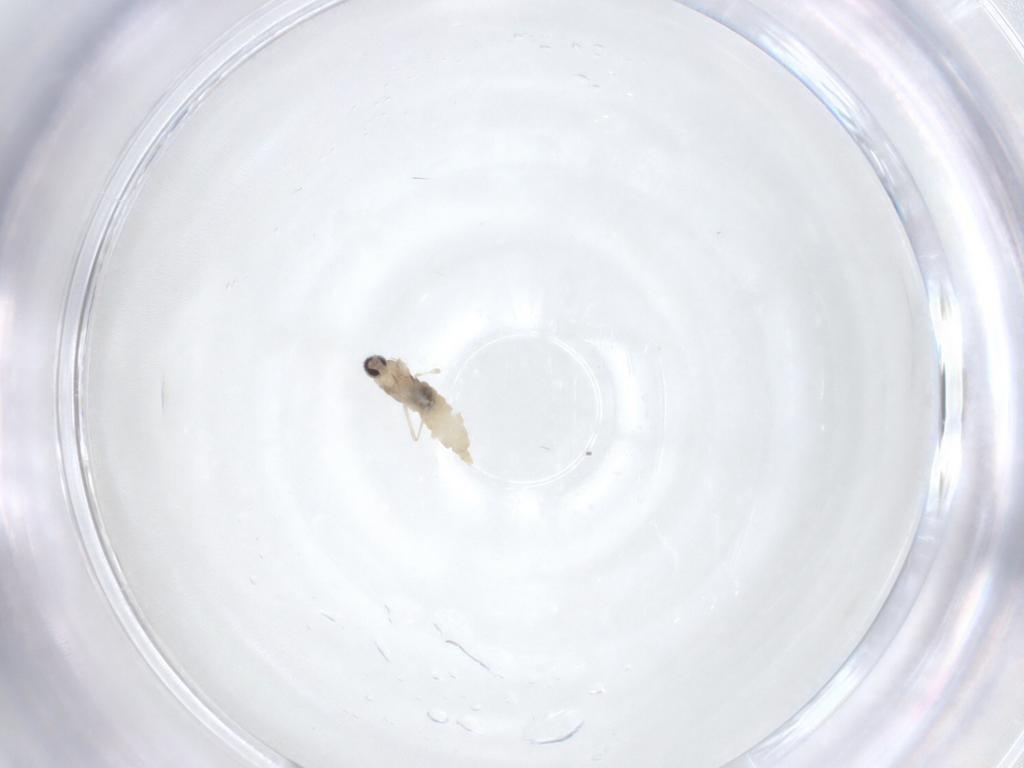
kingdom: Animalia
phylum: Arthropoda
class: Insecta
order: Diptera
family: Cecidomyiidae
